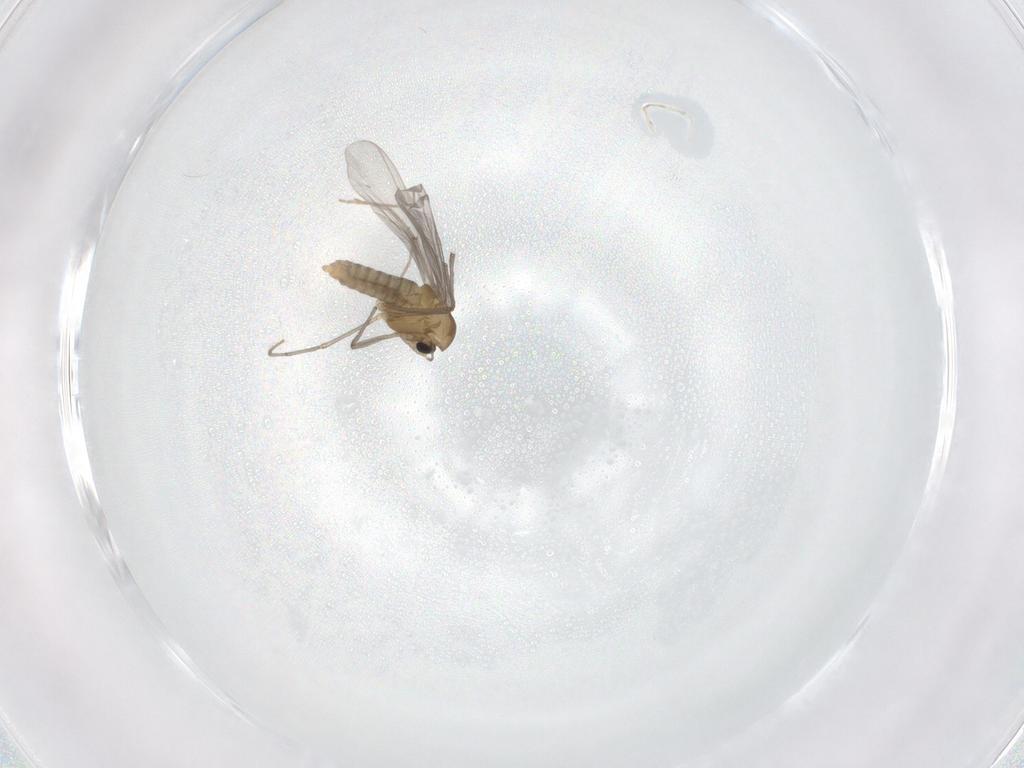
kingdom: Animalia
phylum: Arthropoda
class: Insecta
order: Diptera
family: Chironomidae
